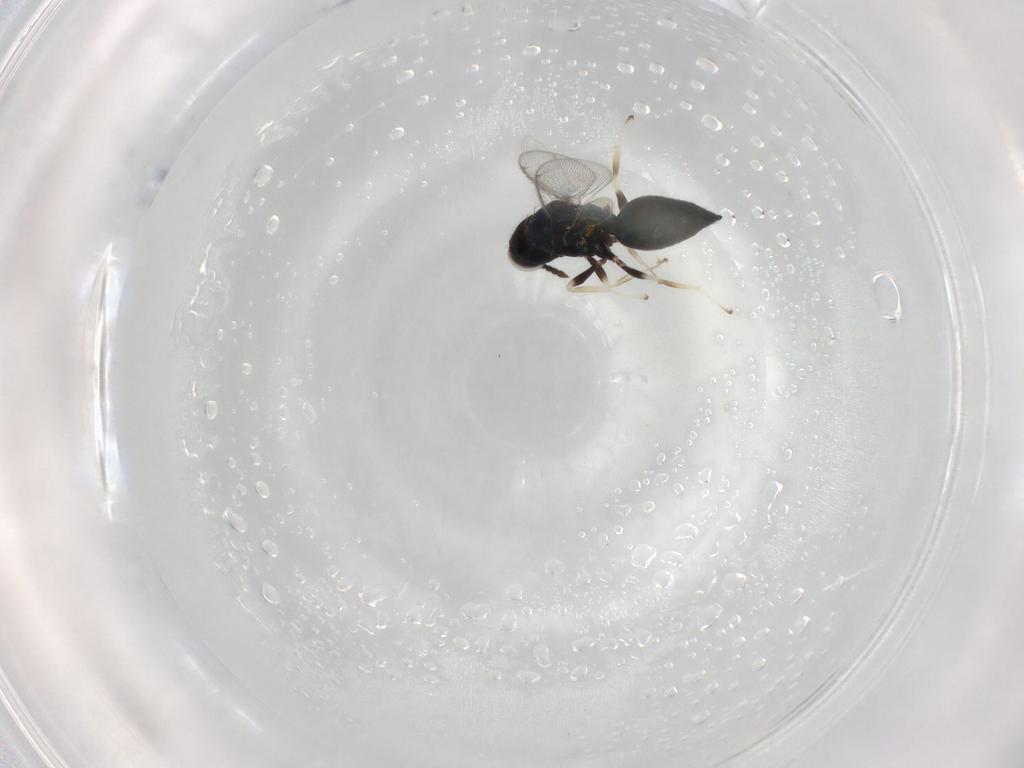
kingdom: Animalia
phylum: Arthropoda
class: Insecta
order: Hymenoptera
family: Eulophidae
